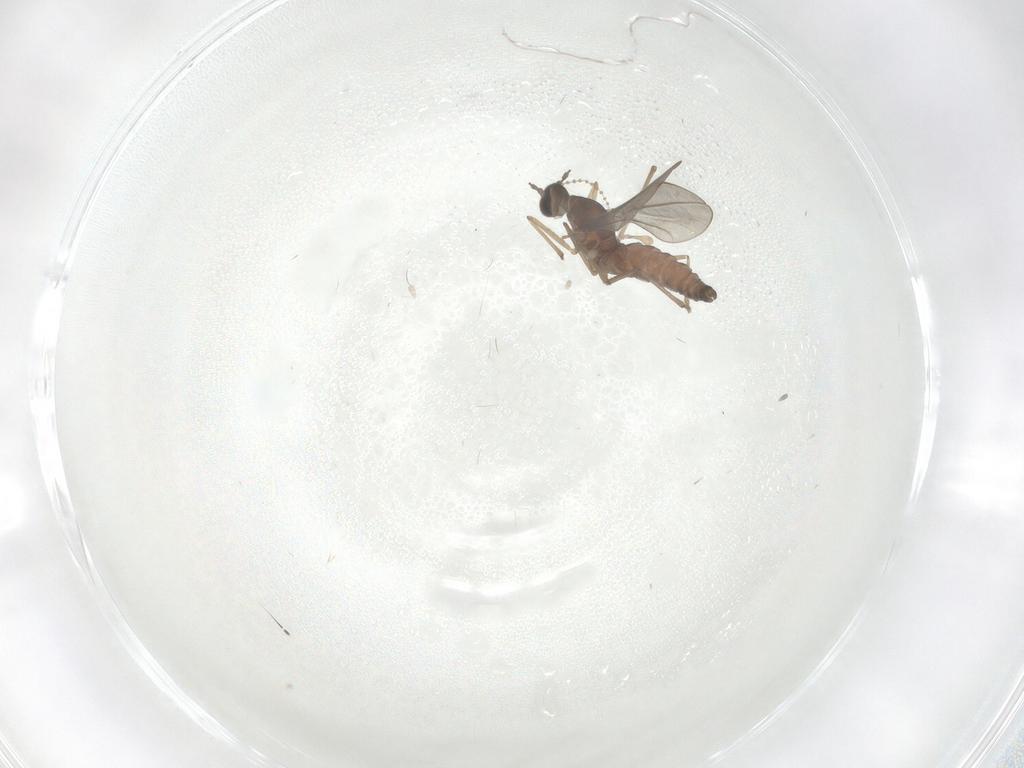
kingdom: Animalia
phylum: Arthropoda
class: Insecta
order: Diptera
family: Cecidomyiidae
